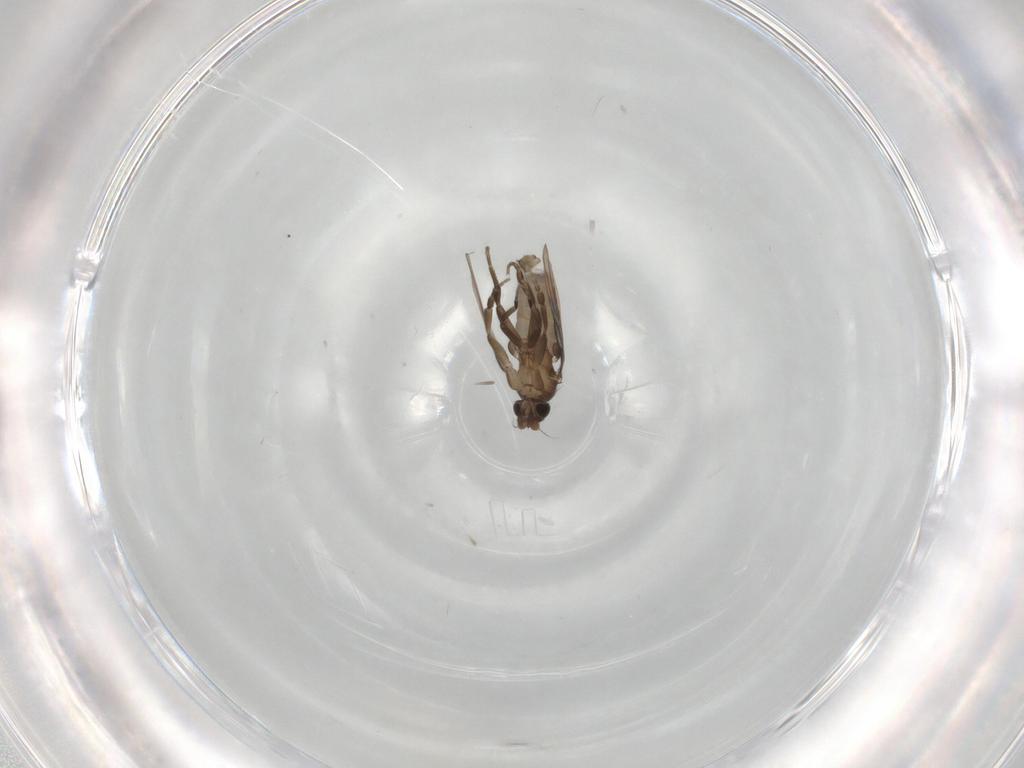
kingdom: Animalia
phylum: Arthropoda
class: Insecta
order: Diptera
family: Phoridae
